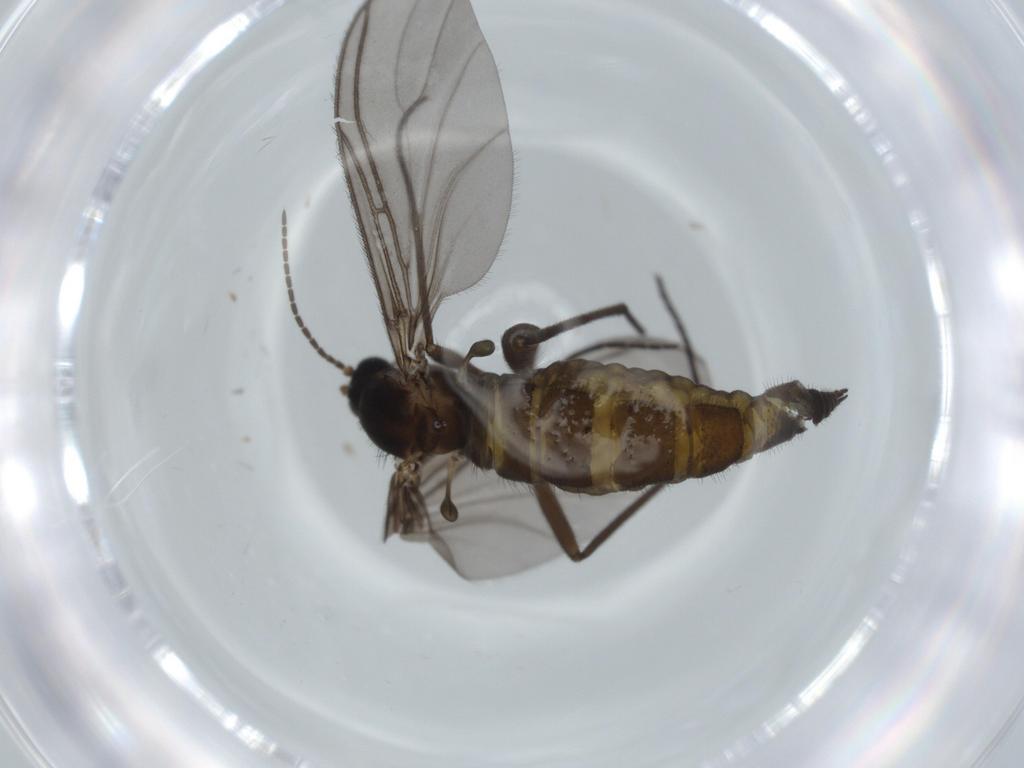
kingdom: Animalia
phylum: Arthropoda
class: Insecta
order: Diptera
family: Sciaridae
